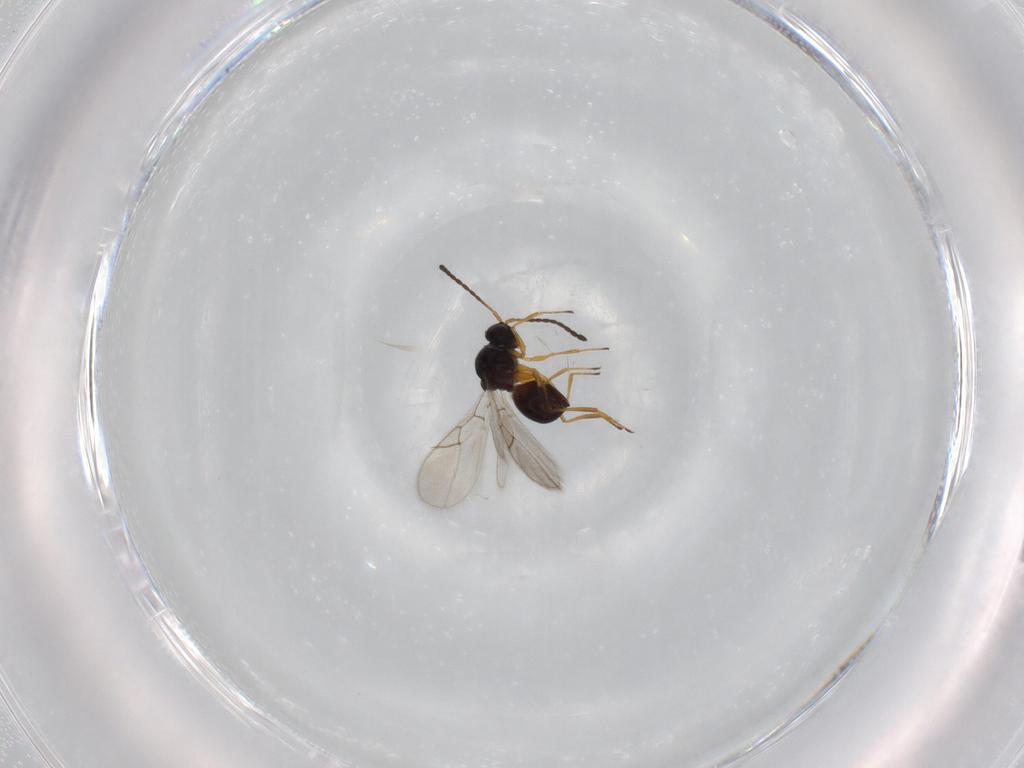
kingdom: Animalia
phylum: Arthropoda
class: Insecta
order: Hymenoptera
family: Figitidae
